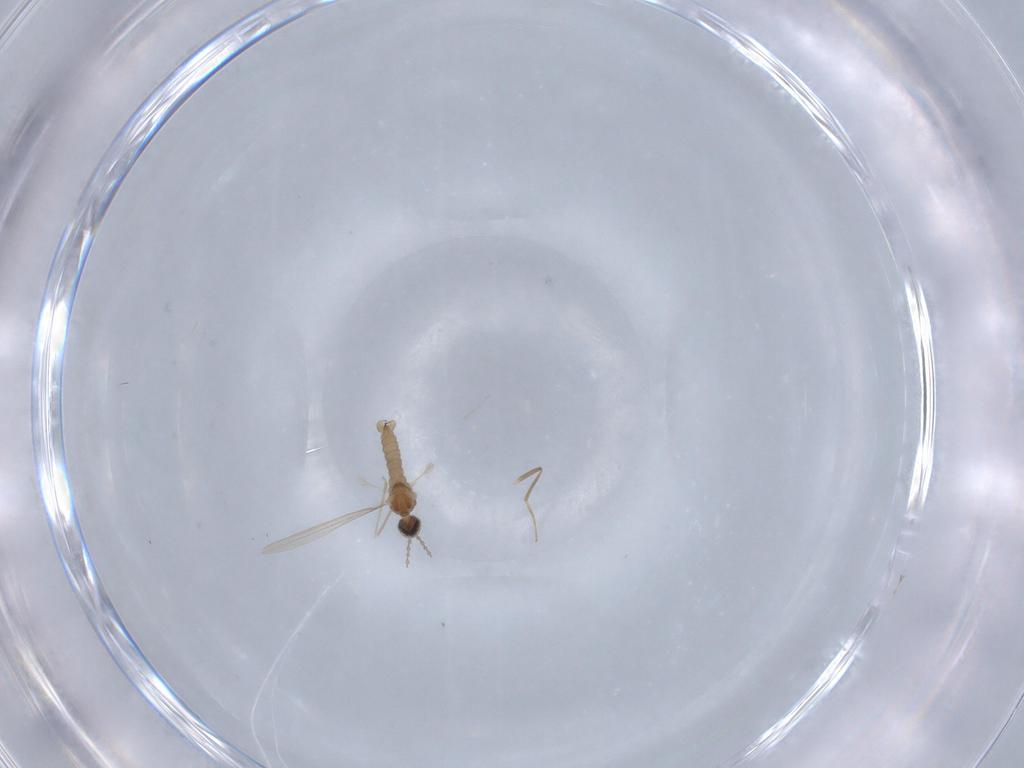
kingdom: Animalia
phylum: Arthropoda
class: Insecta
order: Diptera
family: Cecidomyiidae
